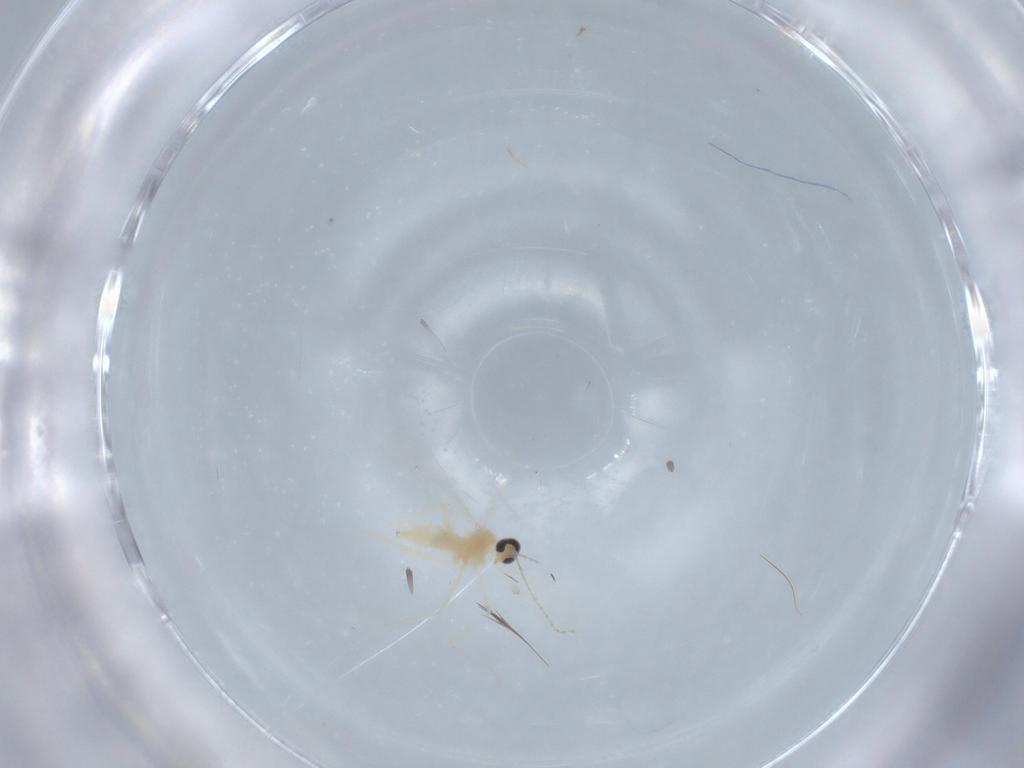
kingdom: Animalia
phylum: Arthropoda
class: Insecta
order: Diptera
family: Cecidomyiidae
